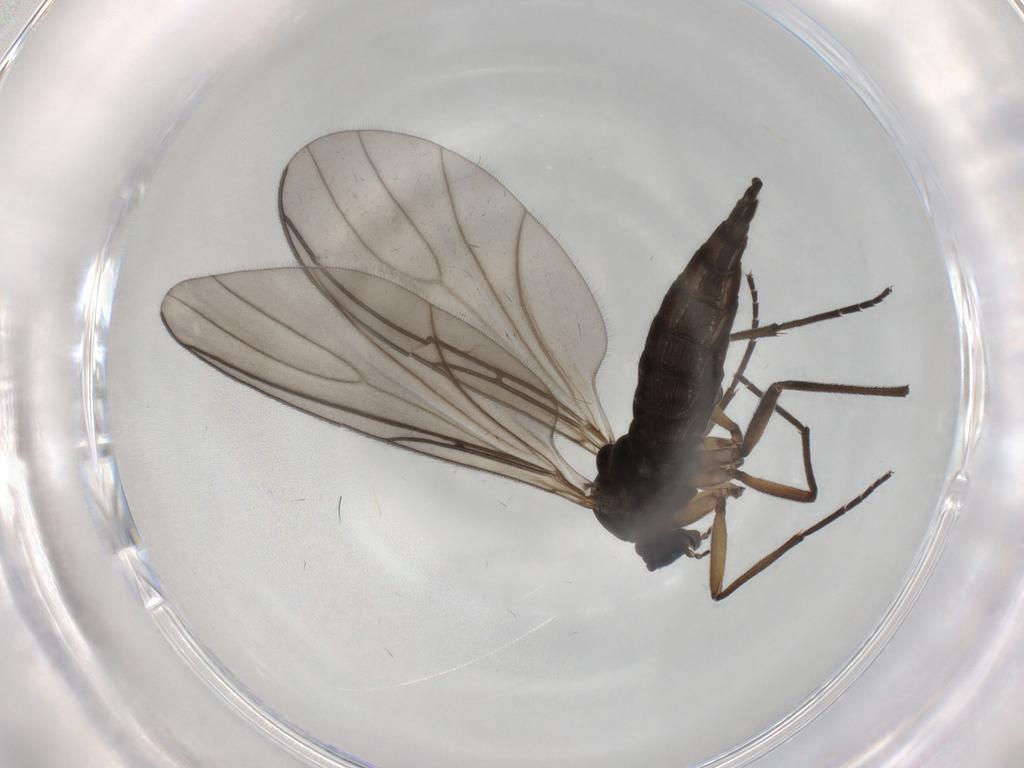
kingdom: Animalia
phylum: Arthropoda
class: Insecta
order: Diptera
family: Sciaridae
